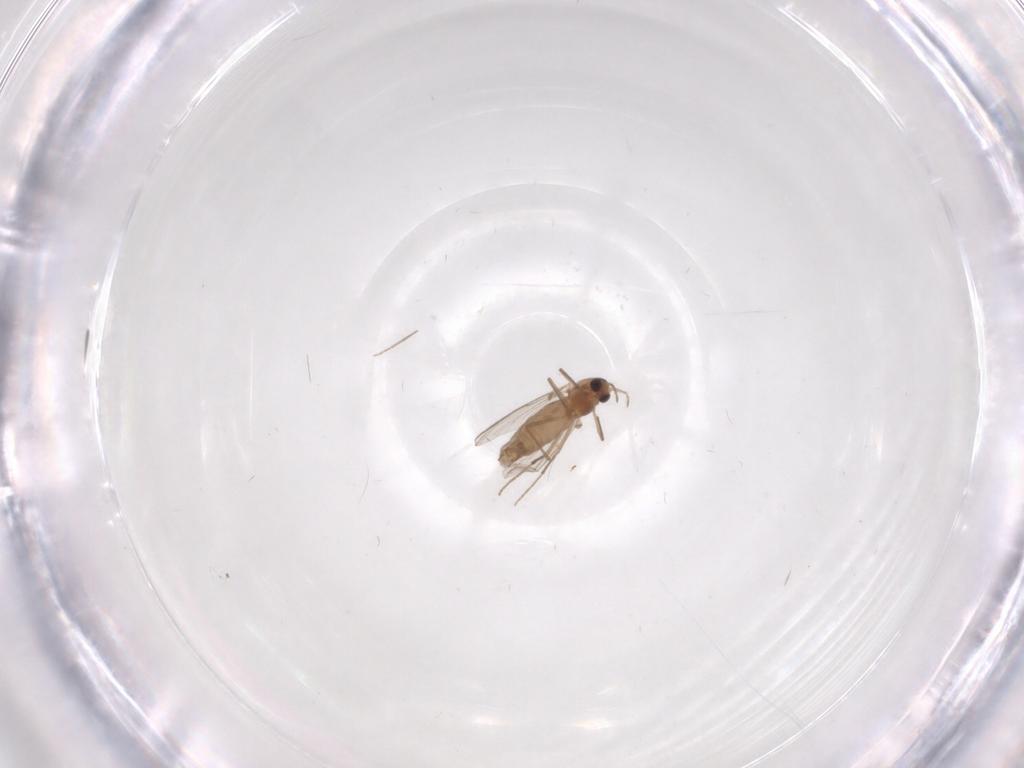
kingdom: Animalia
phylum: Arthropoda
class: Insecta
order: Diptera
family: Chironomidae
